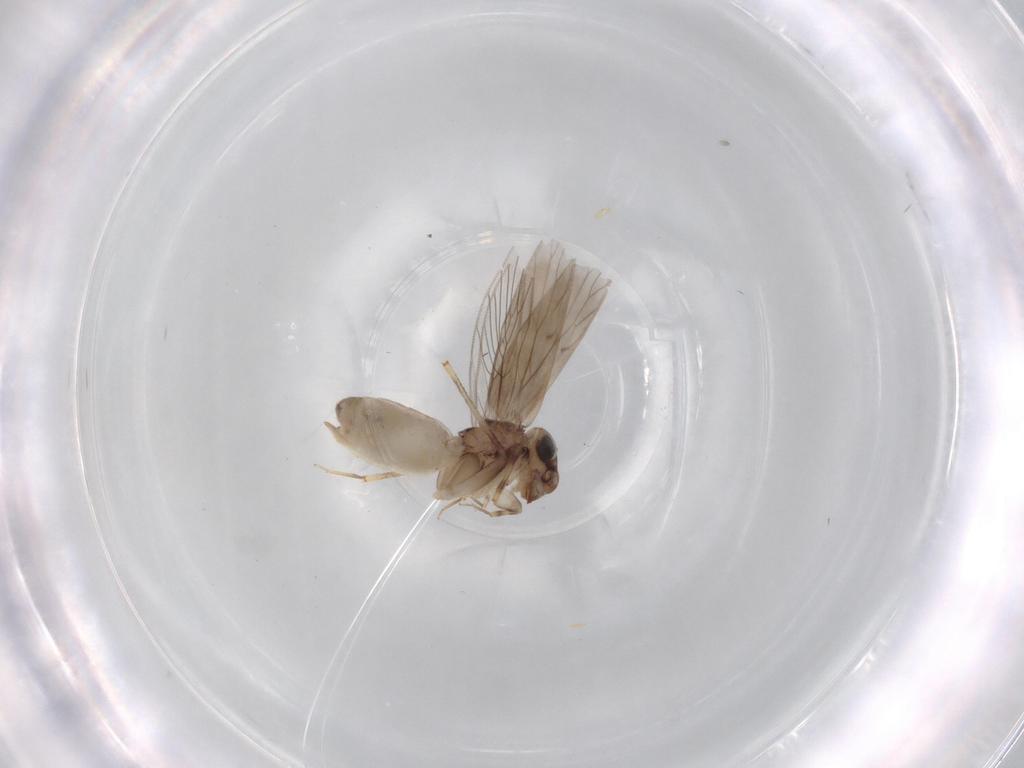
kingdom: Animalia
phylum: Arthropoda
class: Insecta
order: Psocodea
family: Lepidopsocidae
